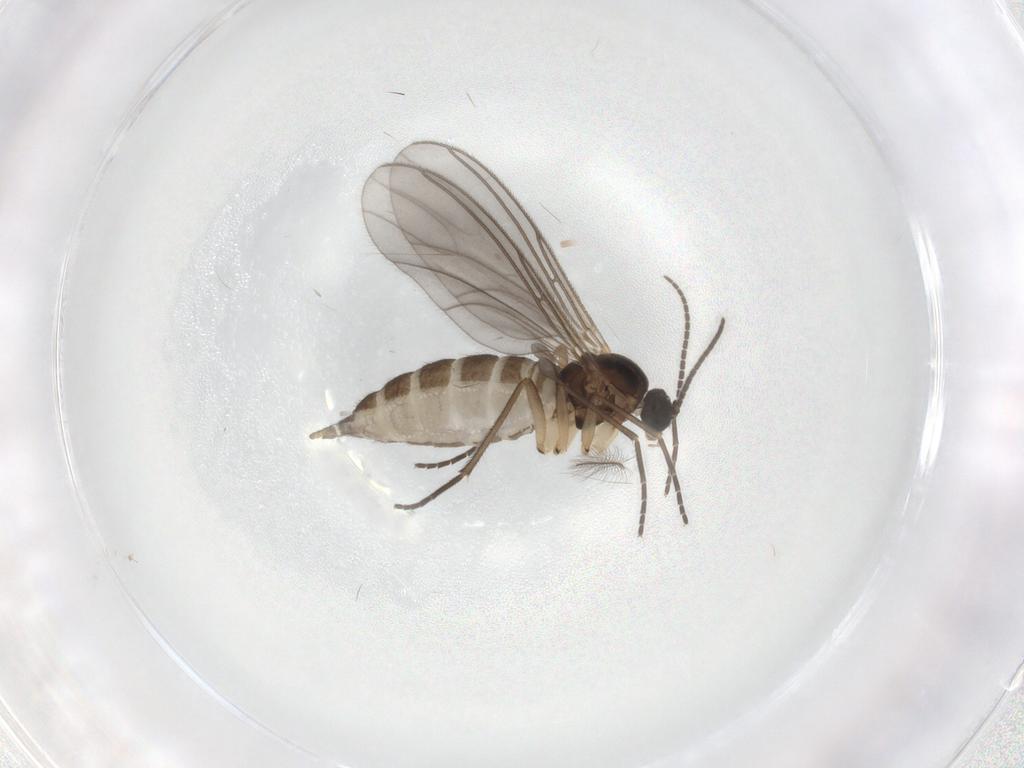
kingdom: Animalia
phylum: Arthropoda
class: Insecta
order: Diptera
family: Sciaridae
